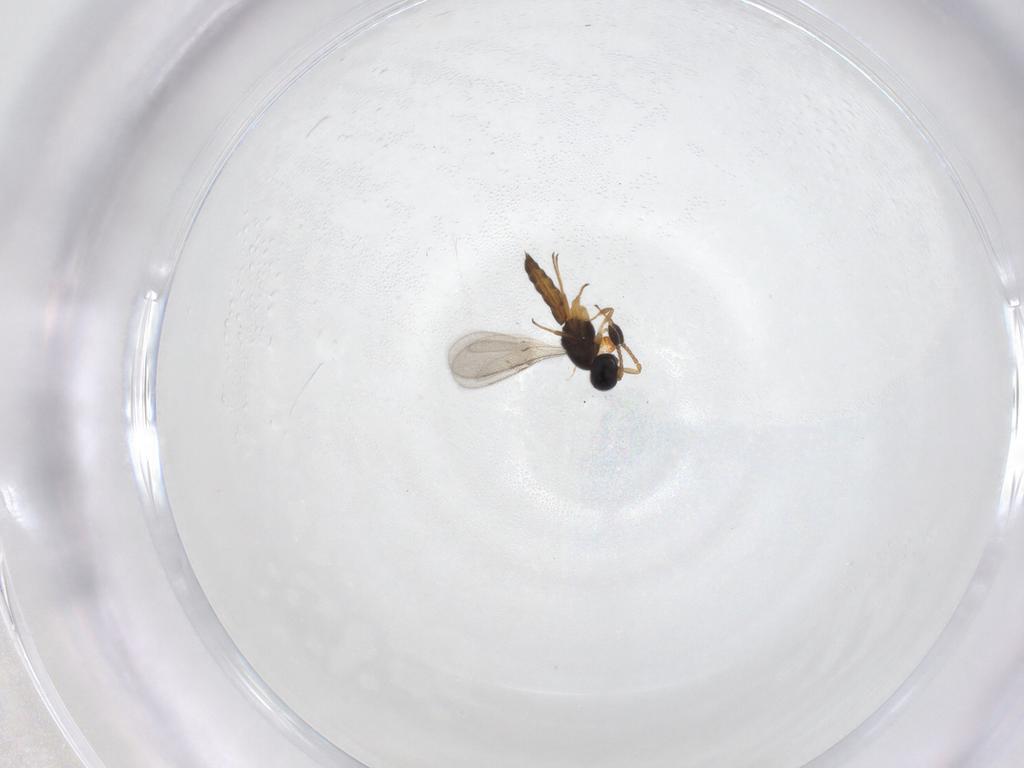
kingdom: Animalia
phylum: Arthropoda
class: Insecta
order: Hymenoptera
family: Scelionidae
